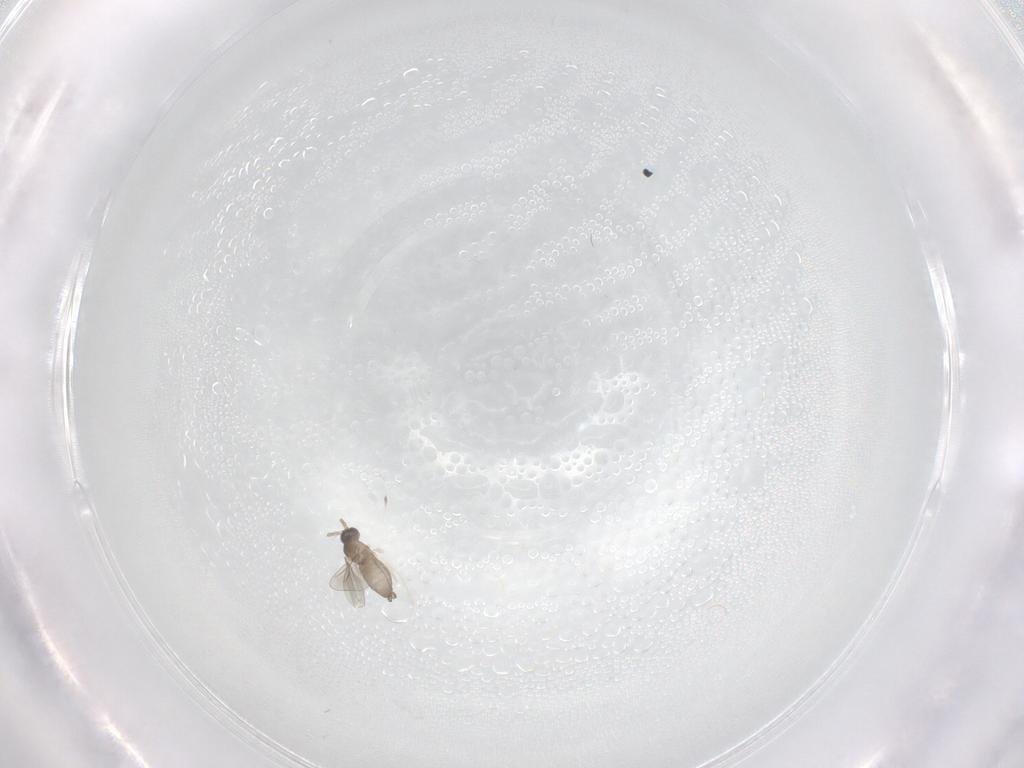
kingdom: Animalia
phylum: Arthropoda
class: Insecta
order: Diptera
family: Cecidomyiidae
